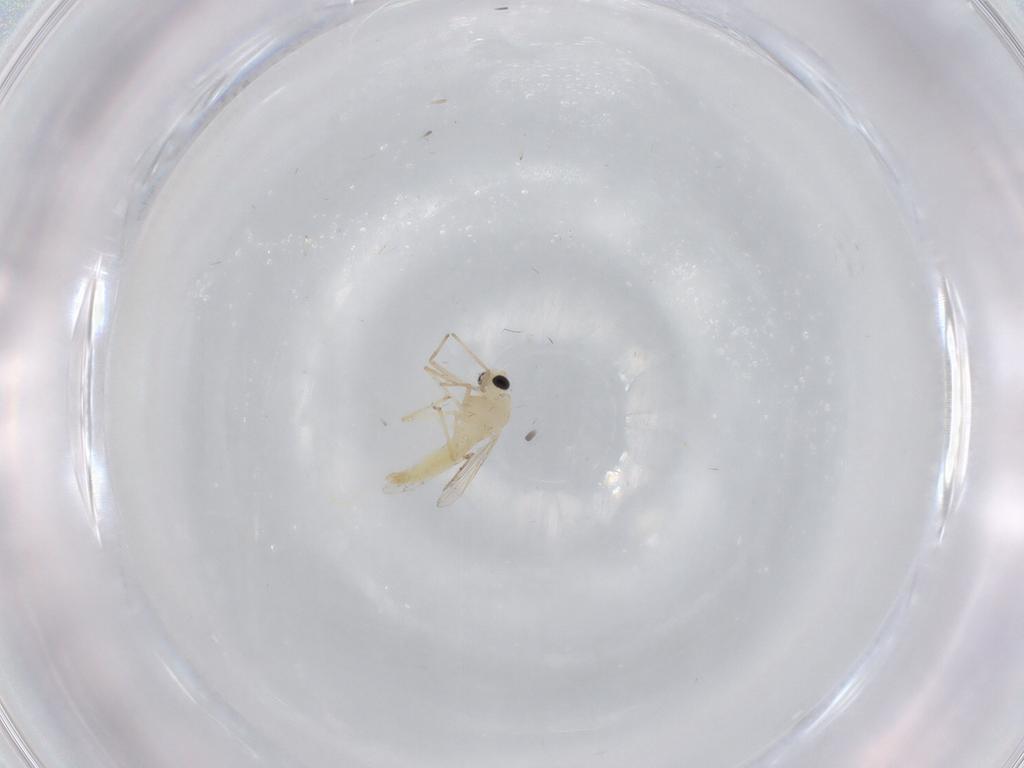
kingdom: Animalia
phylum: Arthropoda
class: Insecta
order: Diptera
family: Chironomidae
